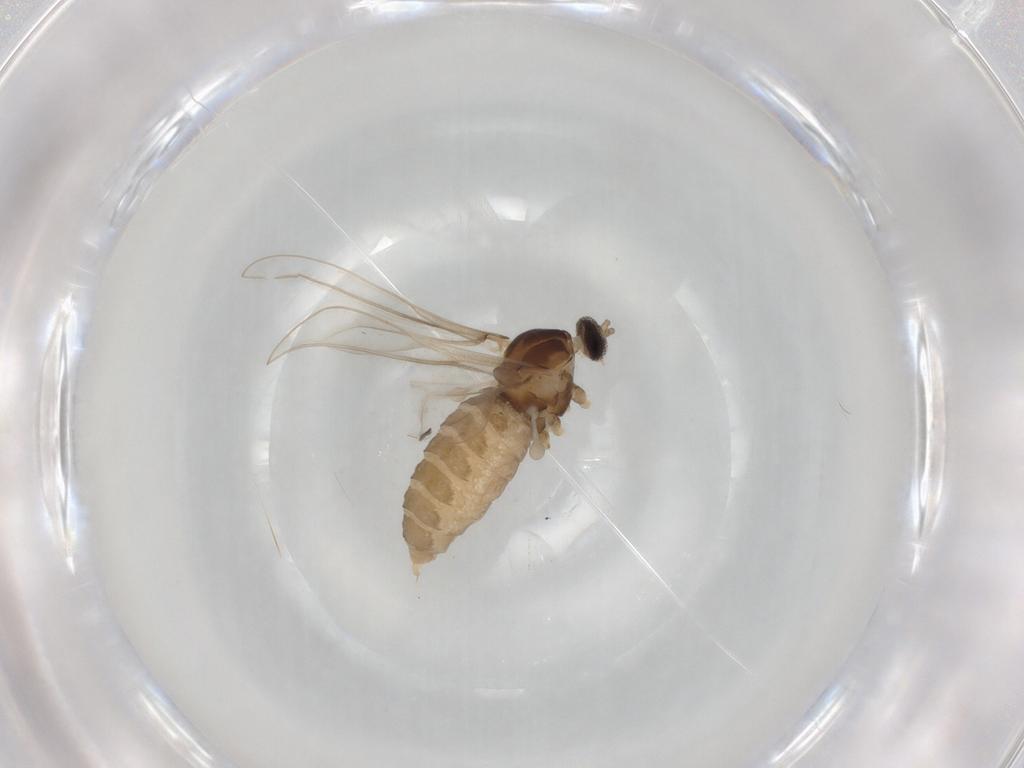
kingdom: Animalia
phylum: Arthropoda
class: Insecta
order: Diptera
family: Cecidomyiidae
